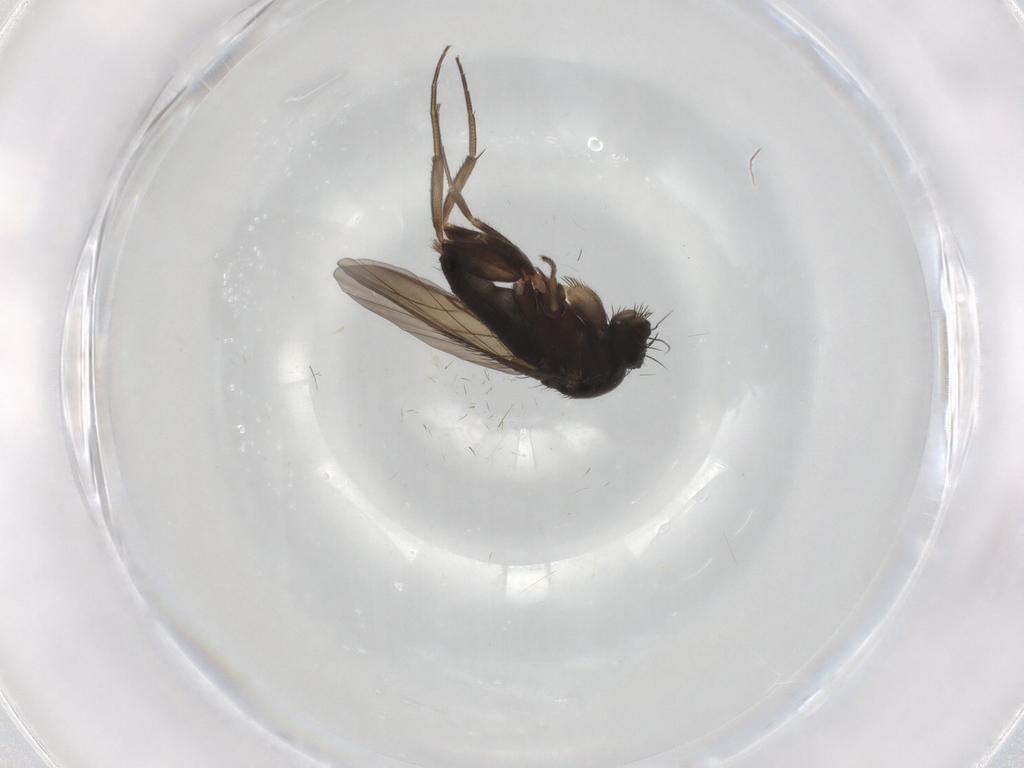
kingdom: Animalia
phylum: Arthropoda
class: Insecta
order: Diptera
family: Phoridae
